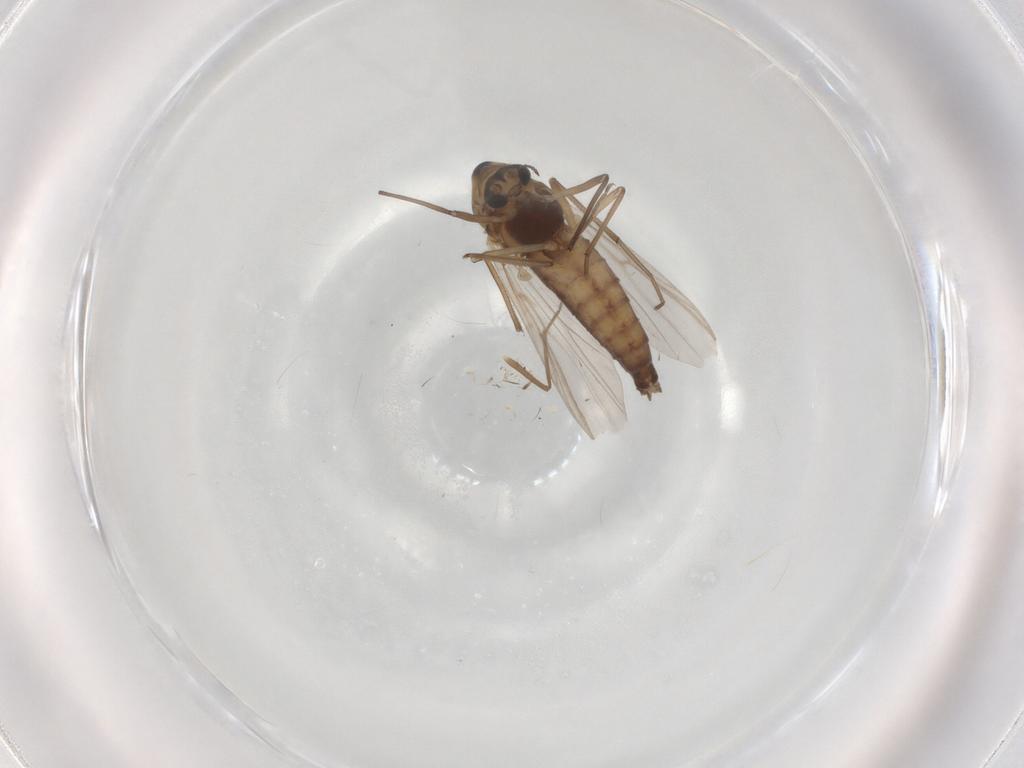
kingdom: Animalia
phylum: Arthropoda
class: Insecta
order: Diptera
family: Chironomidae
